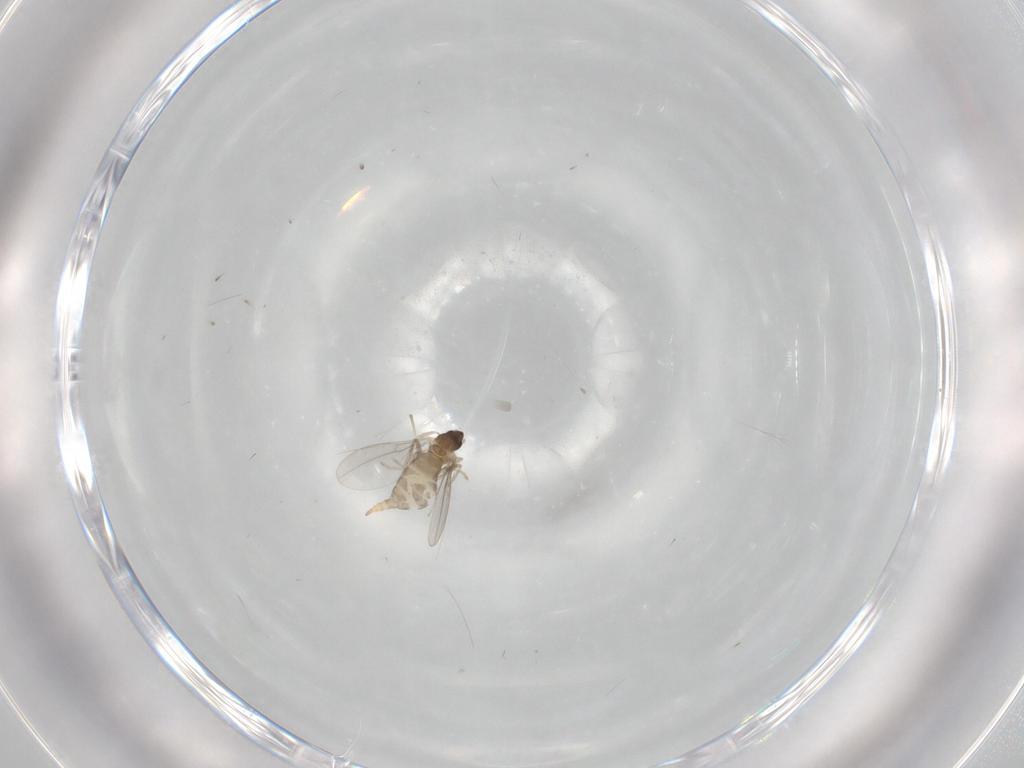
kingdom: Animalia
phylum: Arthropoda
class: Insecta
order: Diptera
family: Cecidomyiidae
